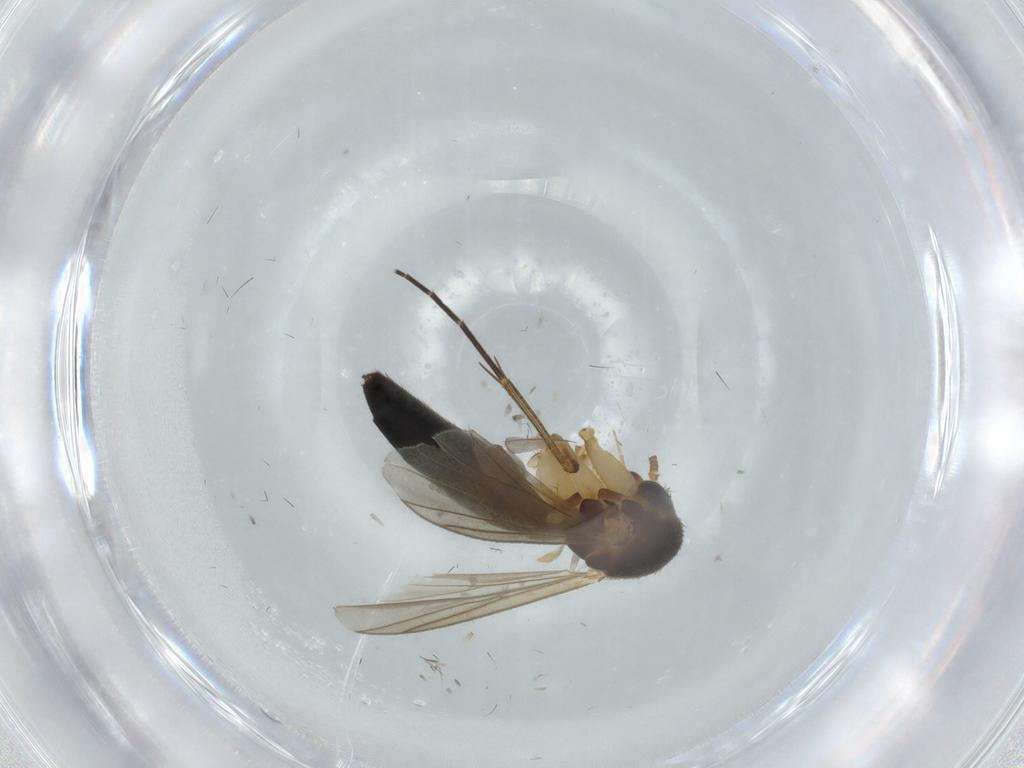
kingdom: Animalia
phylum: Arthropoda
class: Insecta
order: Diptera
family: Mycetophilidae
